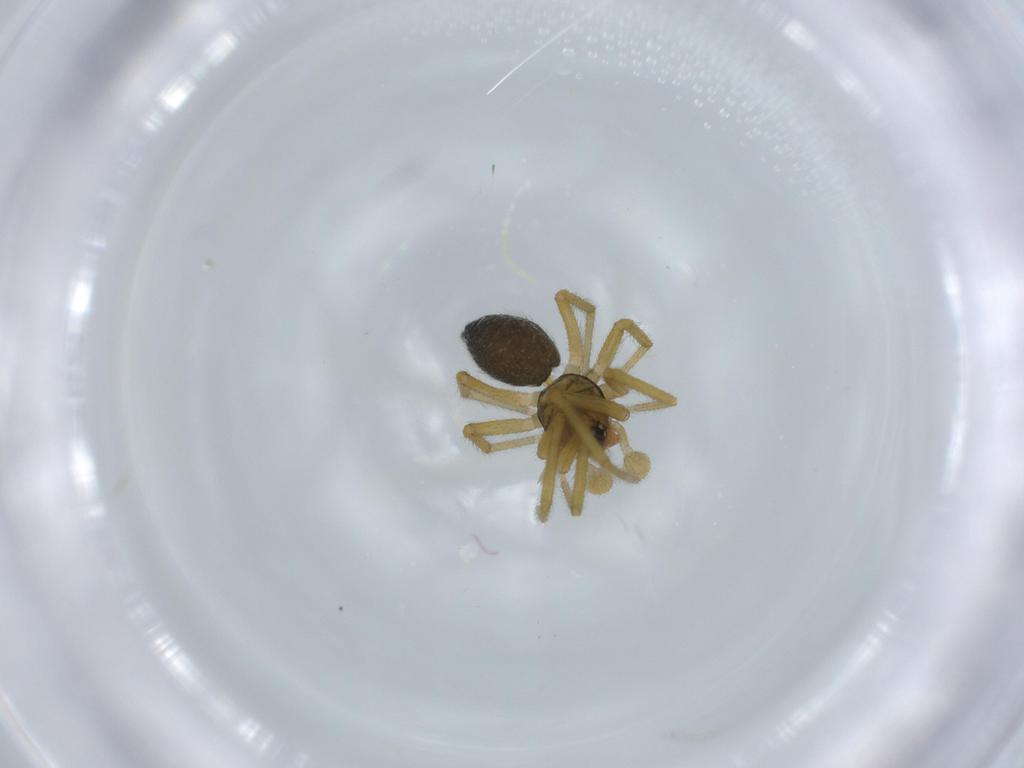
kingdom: Animalia
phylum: Arthropoda
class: Arachnida
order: Araneae
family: Linyphiidae
